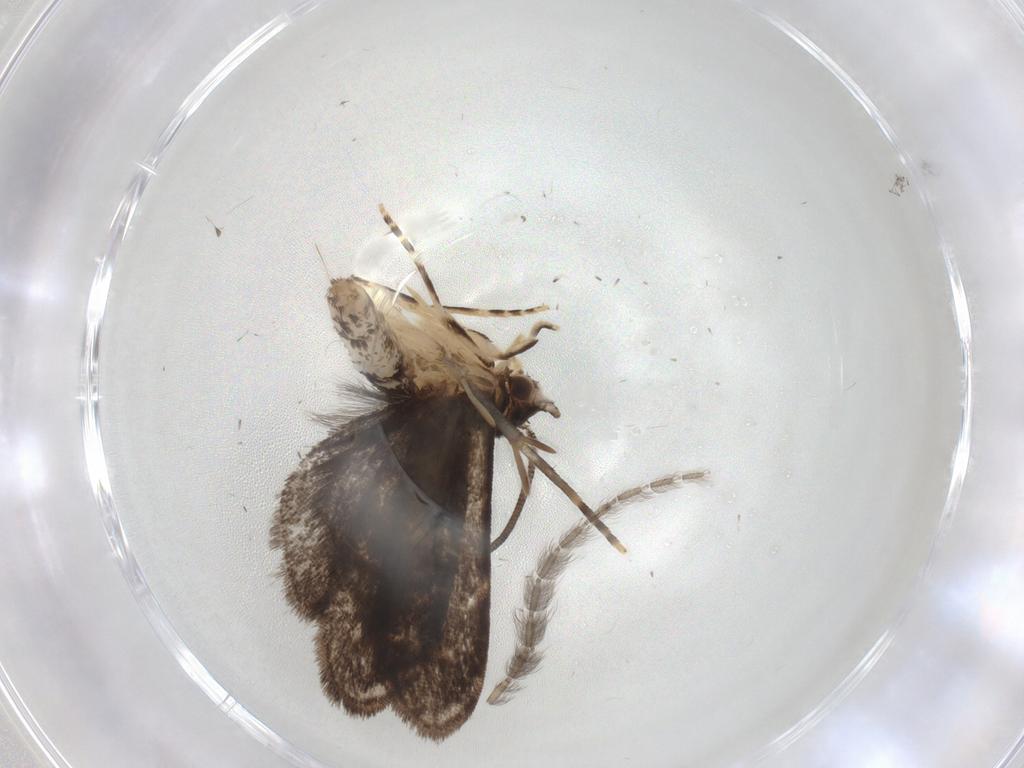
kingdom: Animalia
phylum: Arthropoda
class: Insecta
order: Lepidoptera
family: Dryadaulidae
